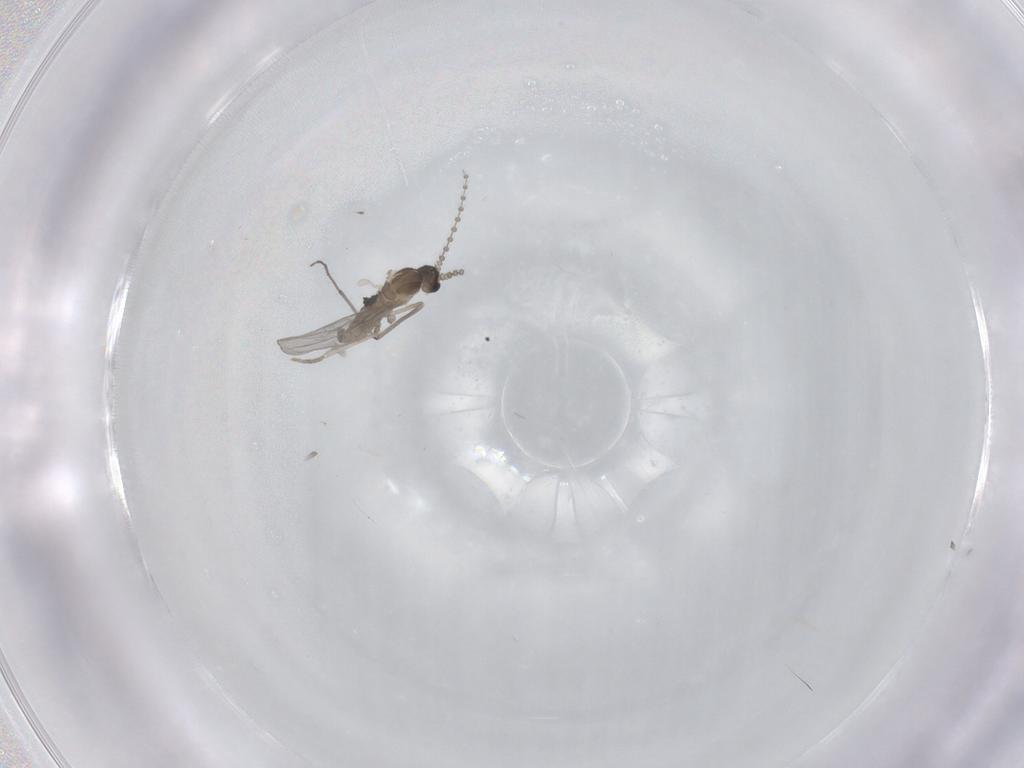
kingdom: Animalia
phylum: Arthropoda
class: Insecta
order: Diptera
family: Cecidomyiidae
